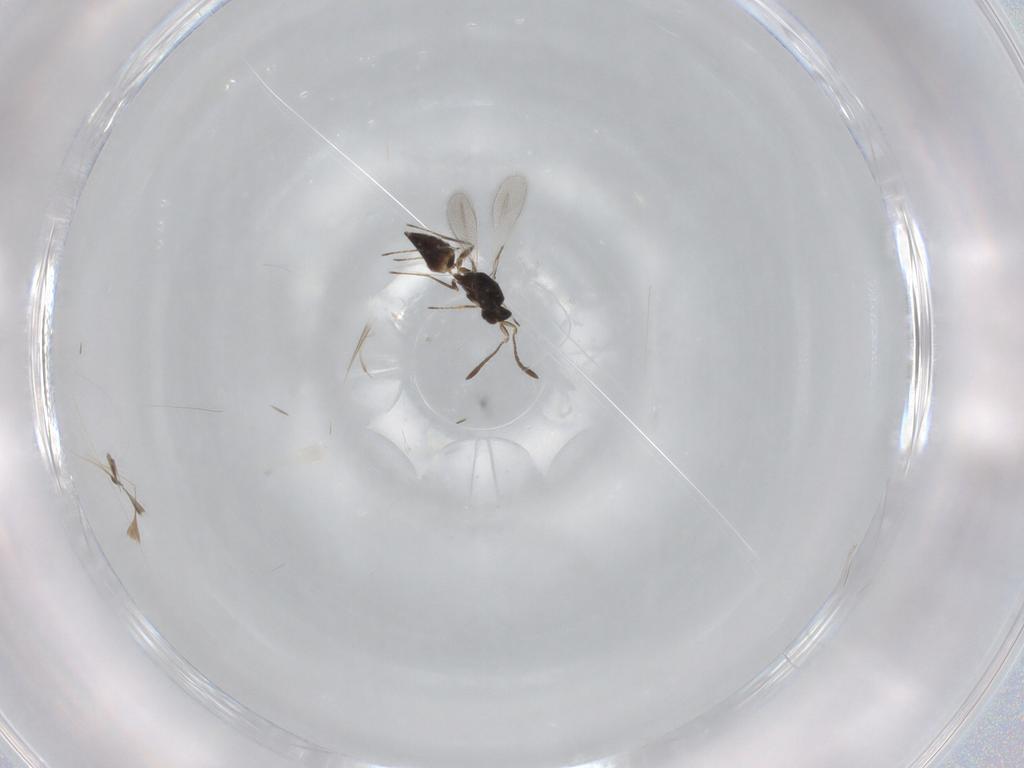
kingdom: Animalia
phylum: Arthropoda
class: Insecta
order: Hymenoptera
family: Mymaridae
